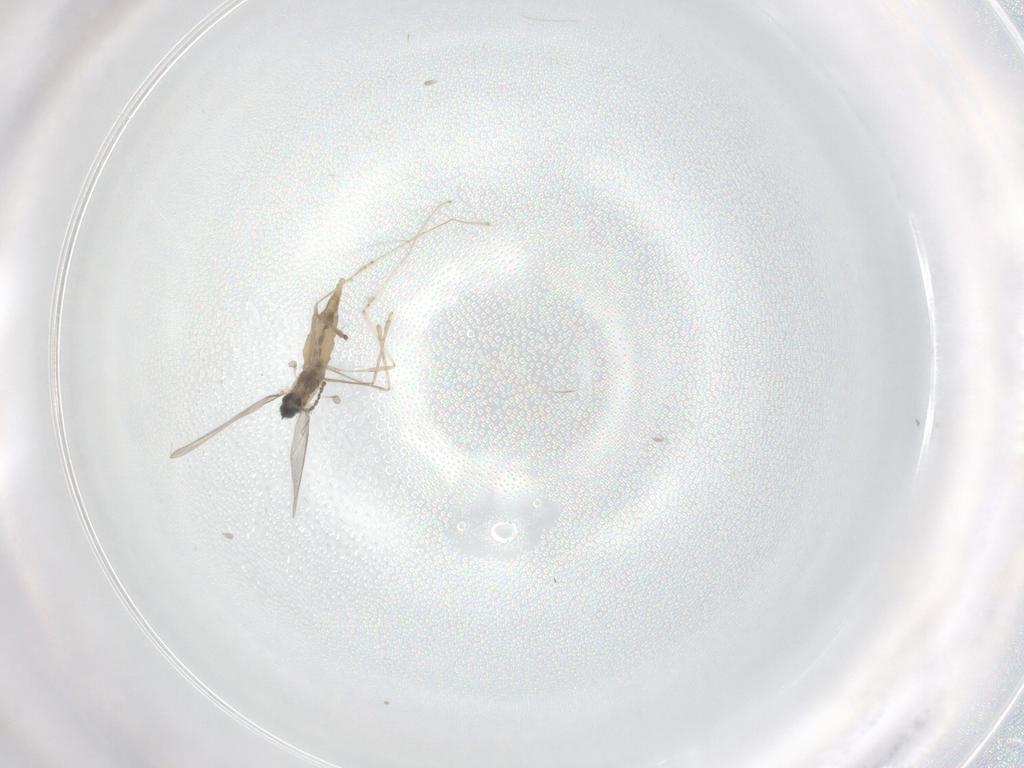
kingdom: Animalia
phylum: Arthropoda
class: Insecta
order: Diptera
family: Cecidomyiidae
